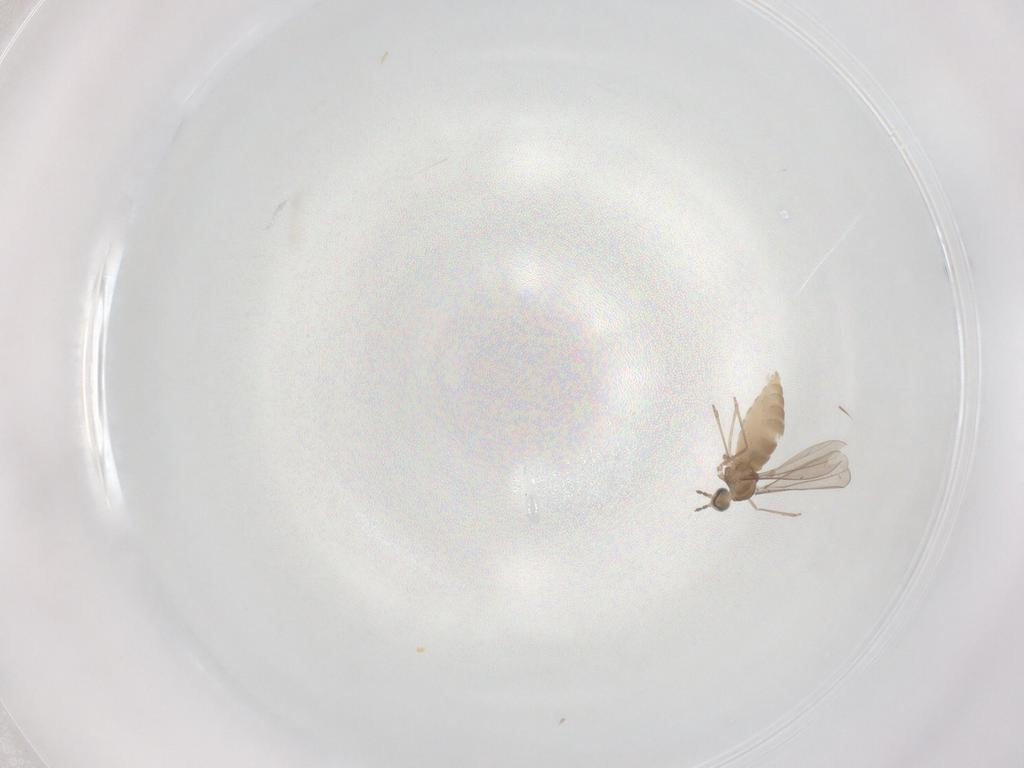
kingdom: Animalia
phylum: Arthropoda
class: Insecta
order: Diptera
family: Cecidomyiidae
